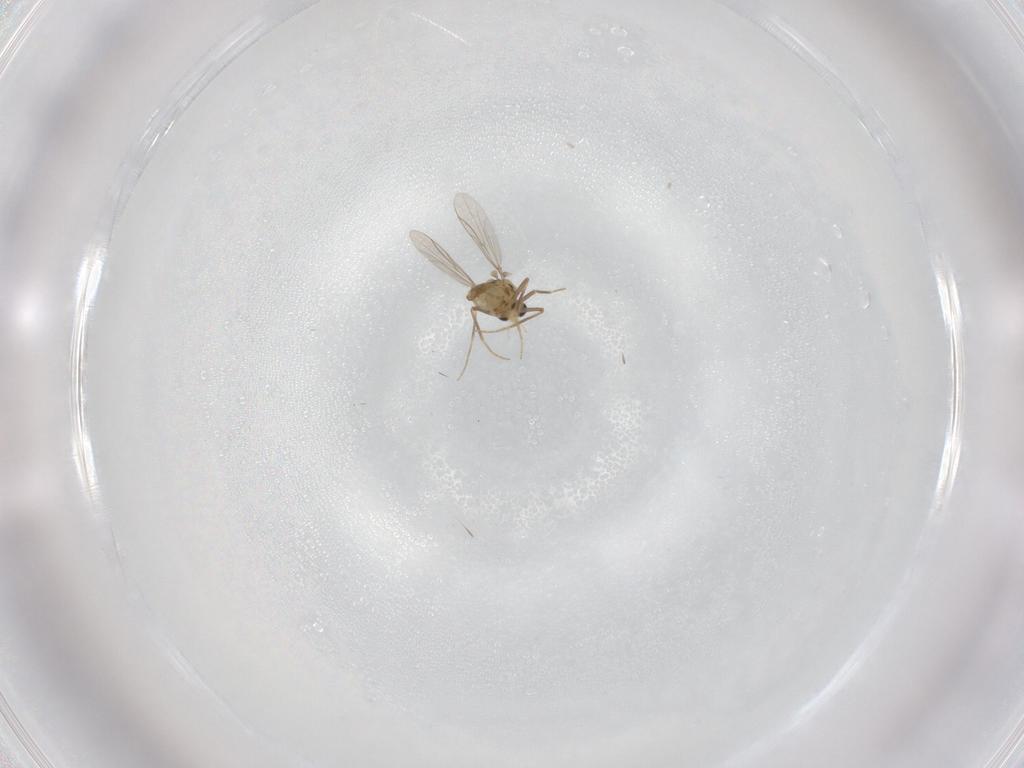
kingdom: Animalia
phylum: Arthropoda
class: Insecta
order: Diptera
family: Chironomidae
